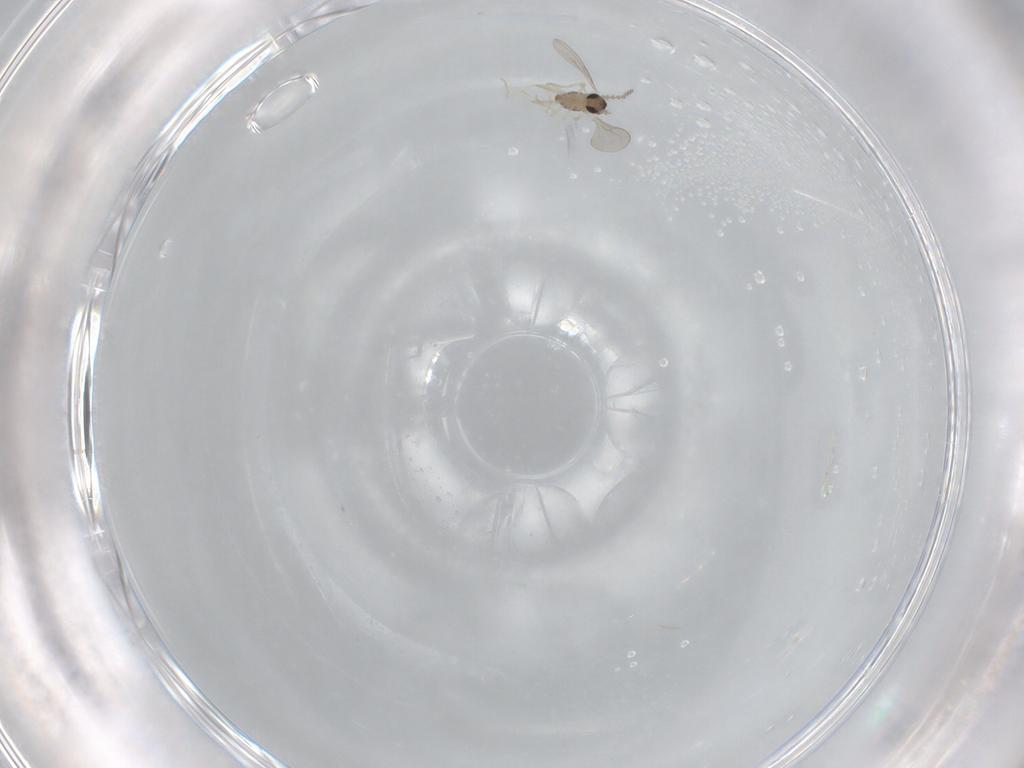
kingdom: Animalia
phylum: Arthropoda
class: Insecta
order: Diptera
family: Cecidomyiidae
